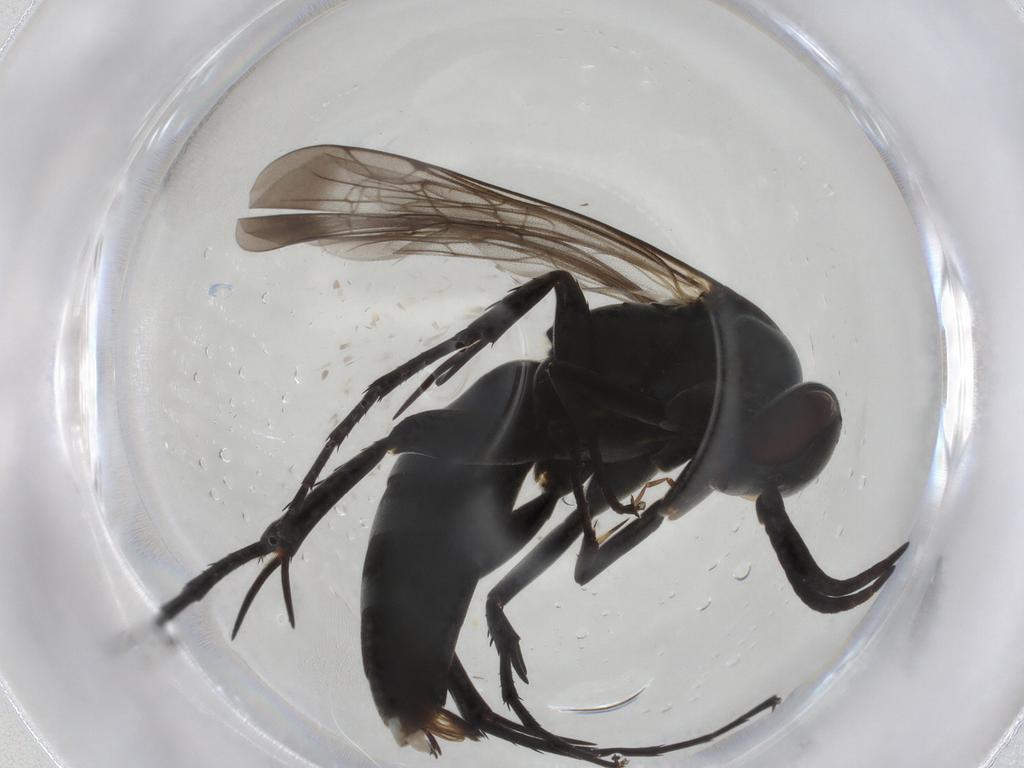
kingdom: Animalia
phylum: Arthropoda
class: Insecta
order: Hymenoptera
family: Pompilidae
